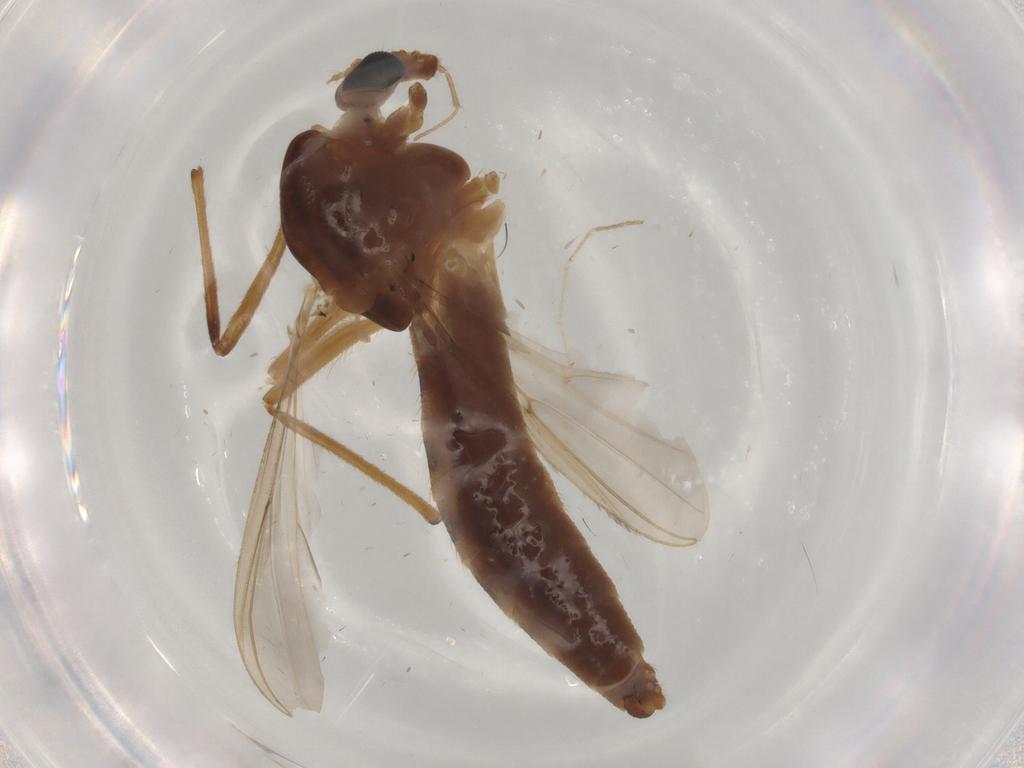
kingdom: Animalia
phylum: Arthropoda
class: Insecta
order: Diptera
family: Chironomidae
